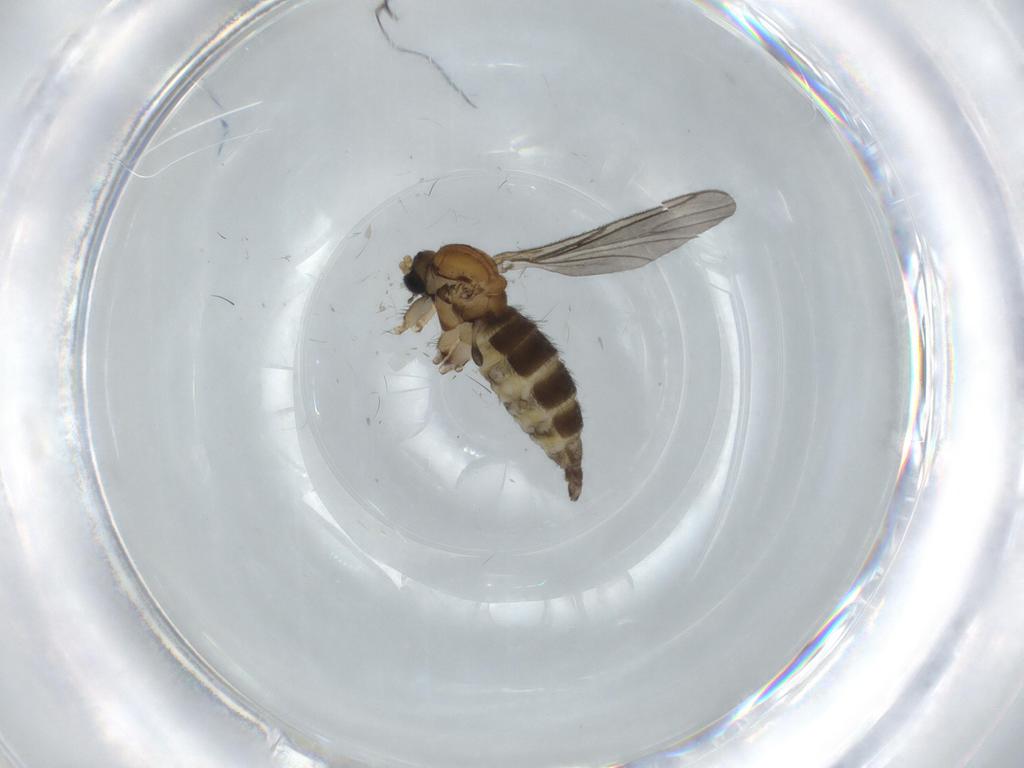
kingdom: Animalia
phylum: Arthropoda
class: Insecta
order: Diptera
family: Sciaridae
